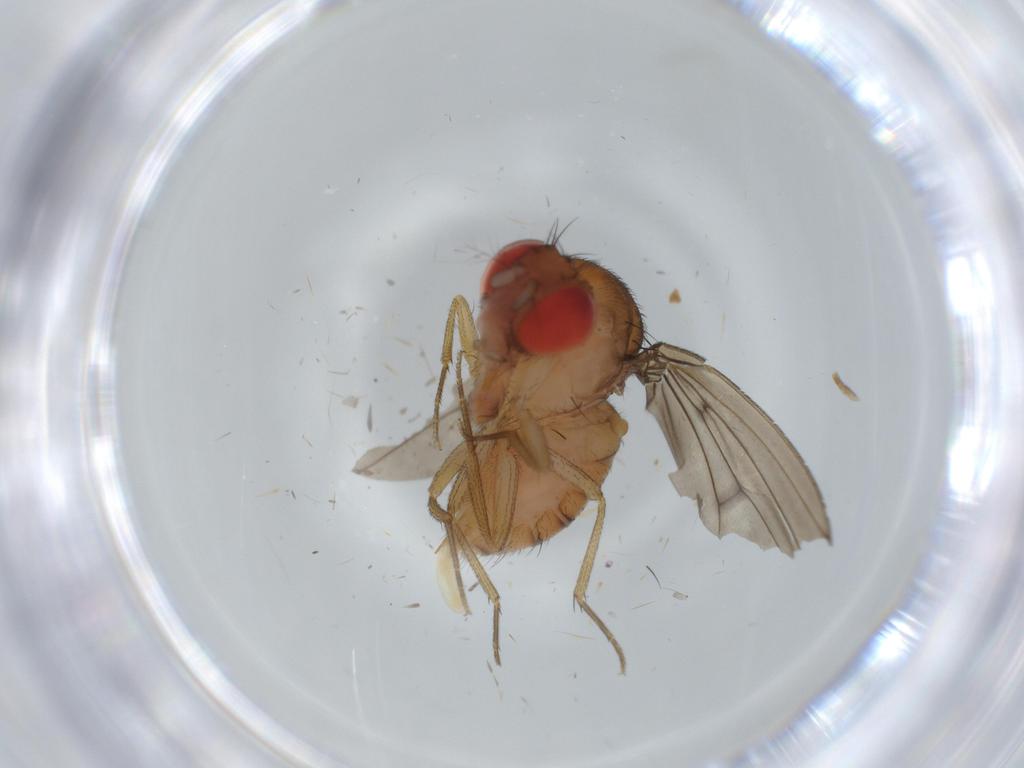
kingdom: Animalia
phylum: Arthropoda
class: Insecta
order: Diptera
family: Drosophilidae
